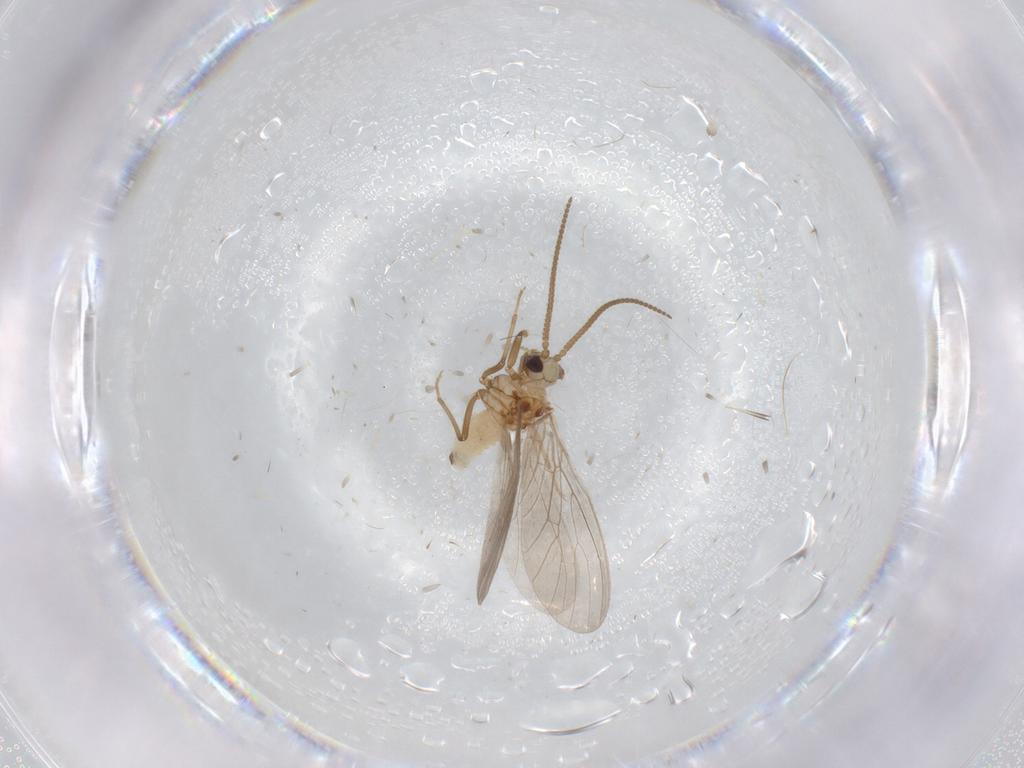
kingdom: Animalia
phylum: Arthropoda
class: Insecta
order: Neuroptera
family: Coniopterygidae
